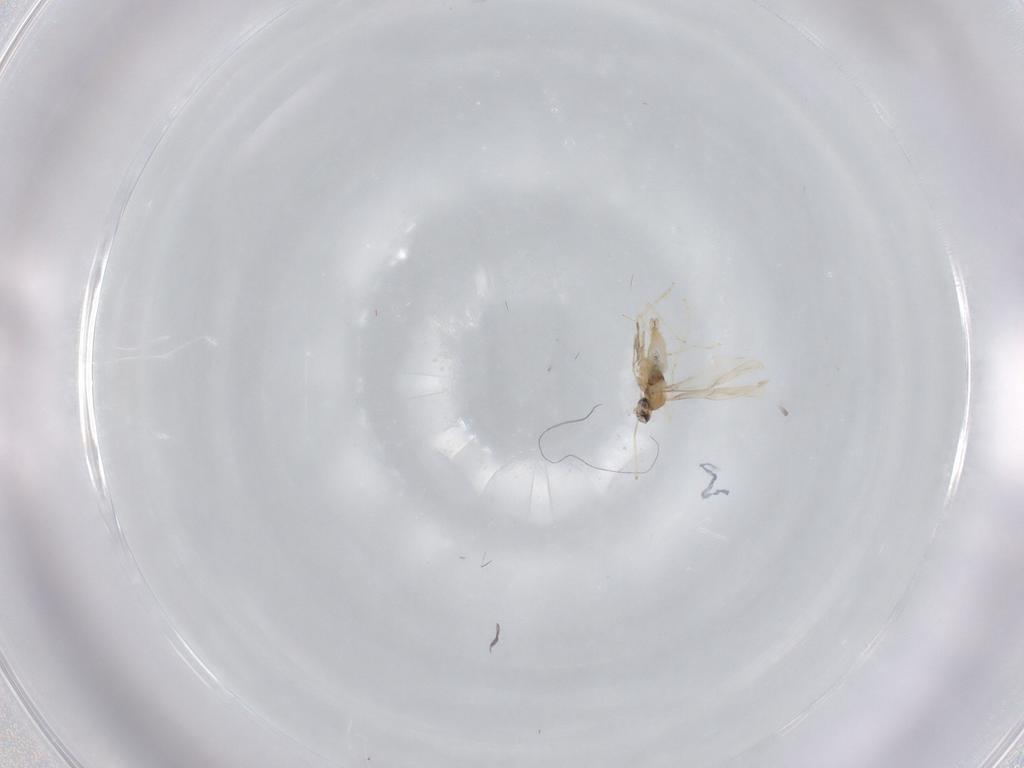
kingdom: Animalia
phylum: Arthropoda
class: Insecta
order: Diptera
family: Cecidomyiidae
